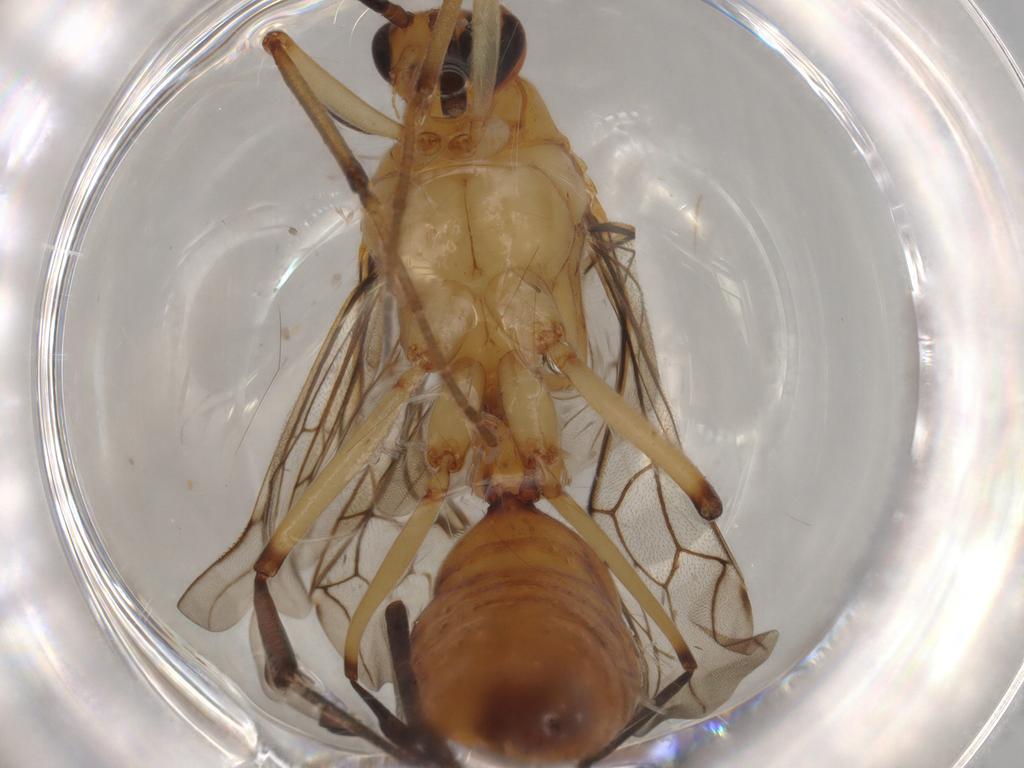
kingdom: Animalia
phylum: Arthropoda
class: Insecta
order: Hymenoptera
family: Formicidae
